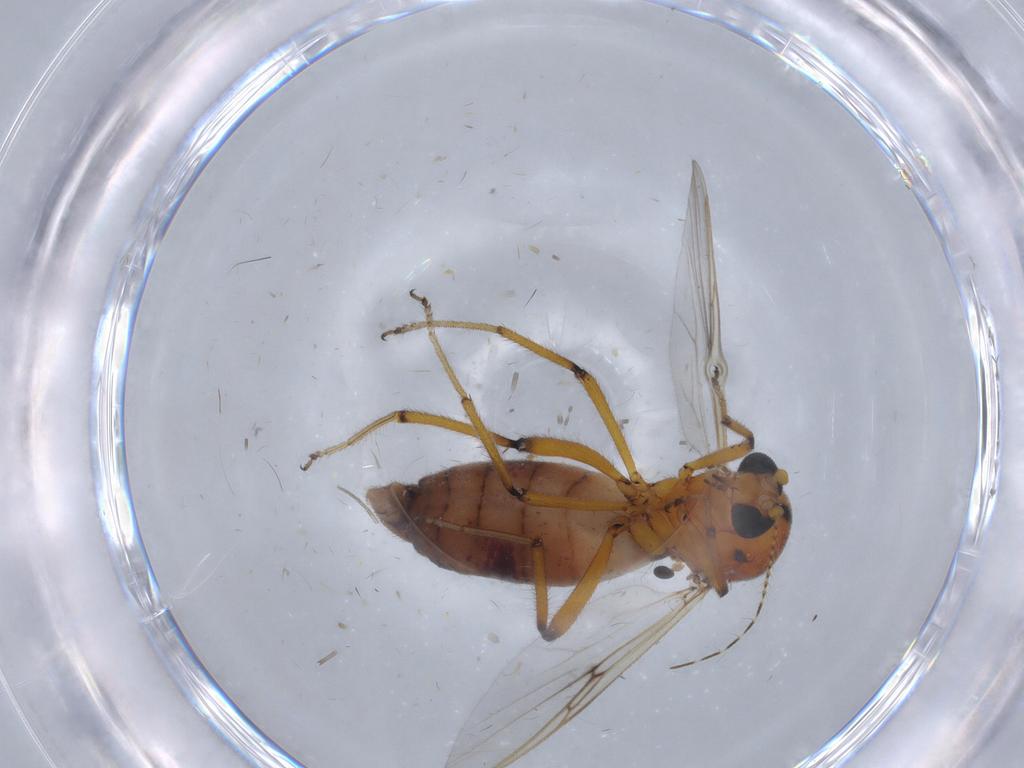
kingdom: Animalia
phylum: Arthropoda
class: Insecta
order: Diptera
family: Ceratopogonidae
